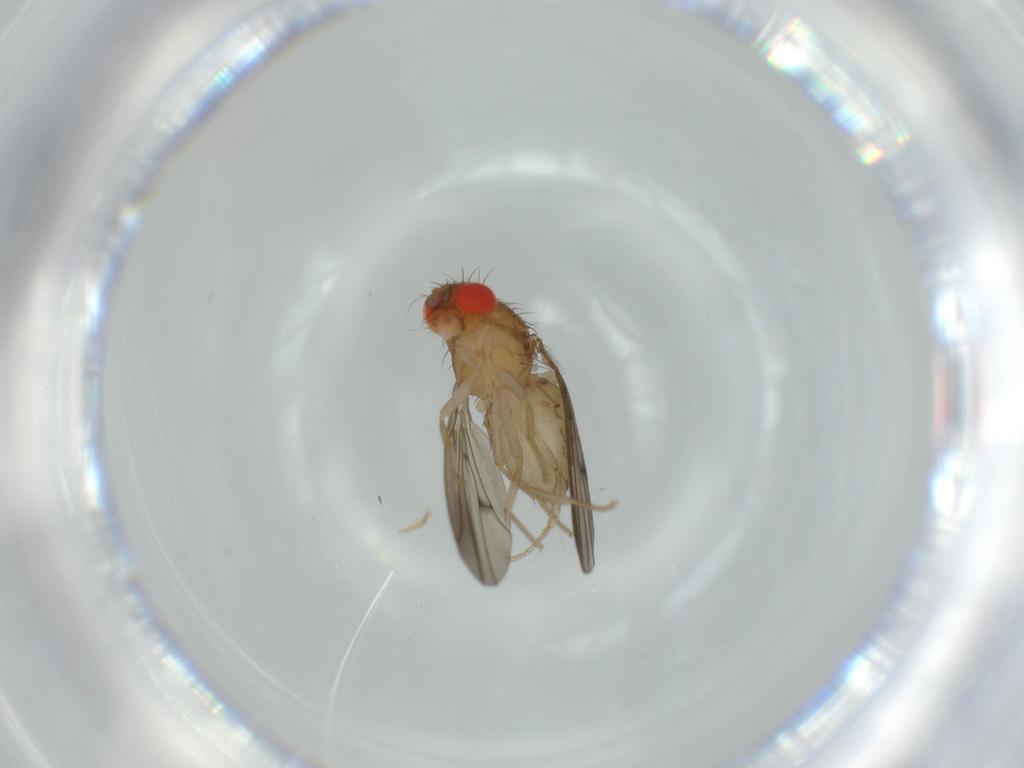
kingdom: Animalia
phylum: Arthropoda
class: Insecta
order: Diptera
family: Drosophilidae
